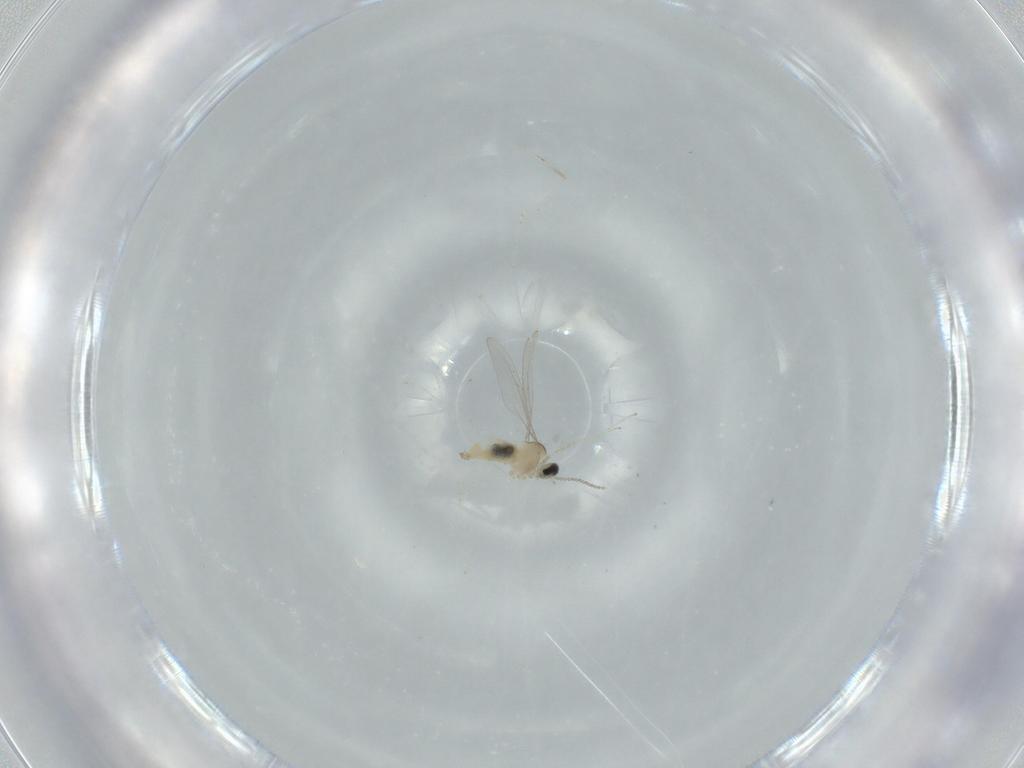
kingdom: Animalia
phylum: Arthropoda
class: Insecta
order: Diptera
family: Cecidomyiidae
